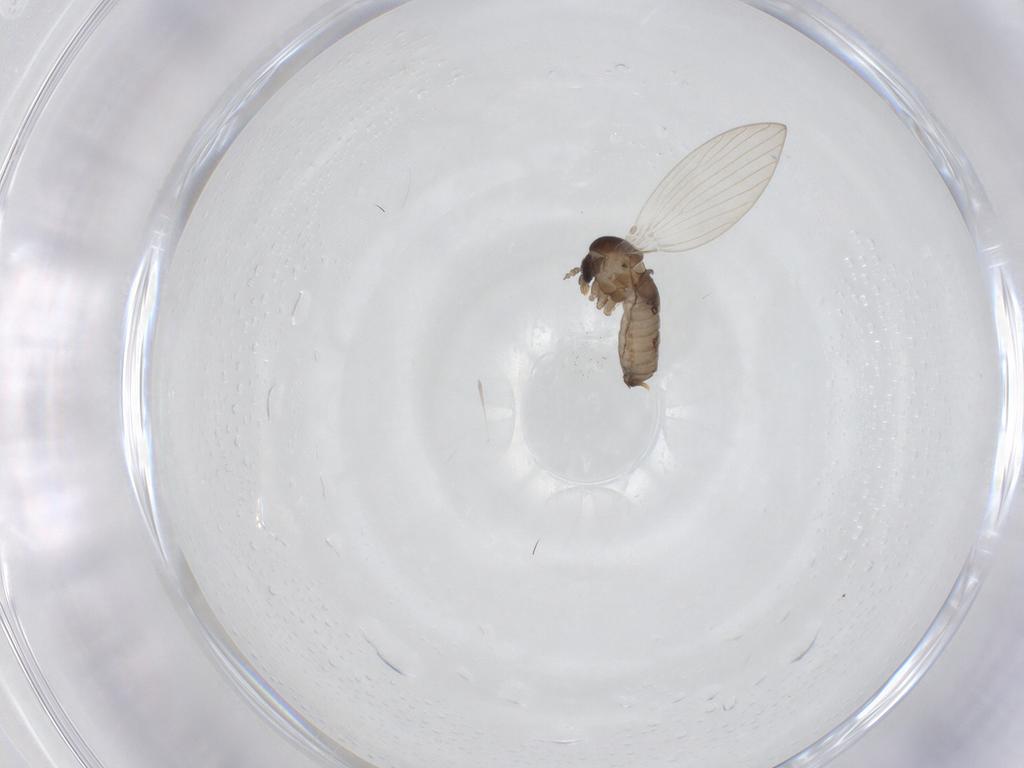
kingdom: Animalia
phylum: Arthropoda
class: Insecta
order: Diptera
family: Psychodidae
